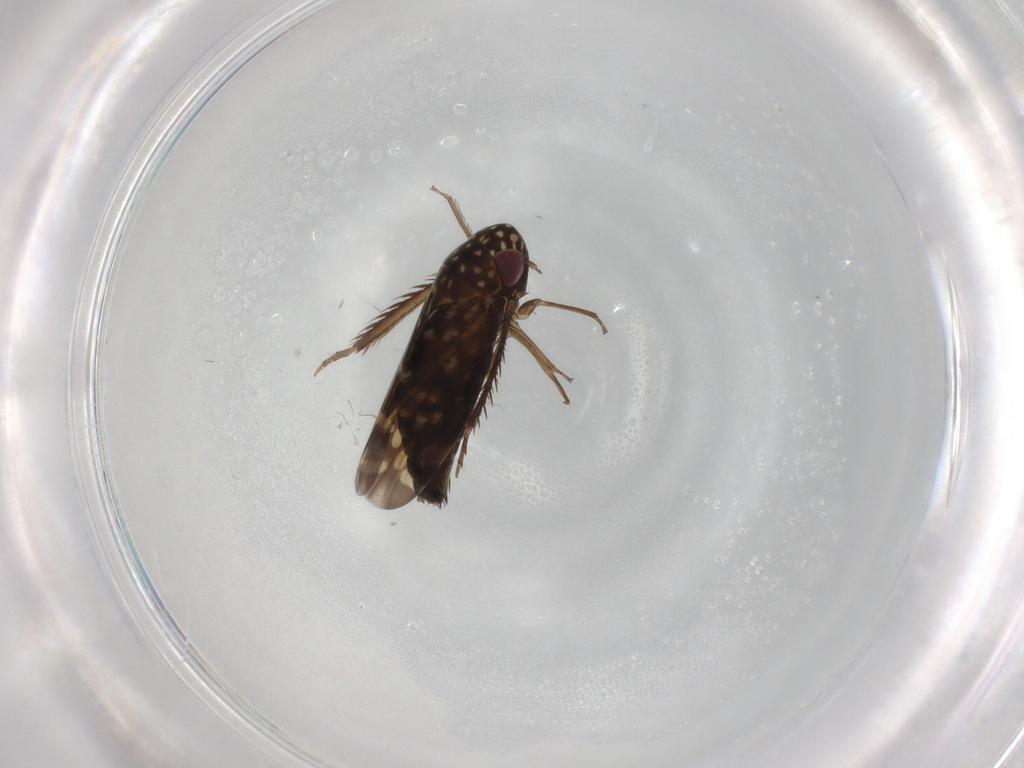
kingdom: Animalia
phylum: Arthropoda
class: Insecta
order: Hemiptera
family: Cicadellidae
